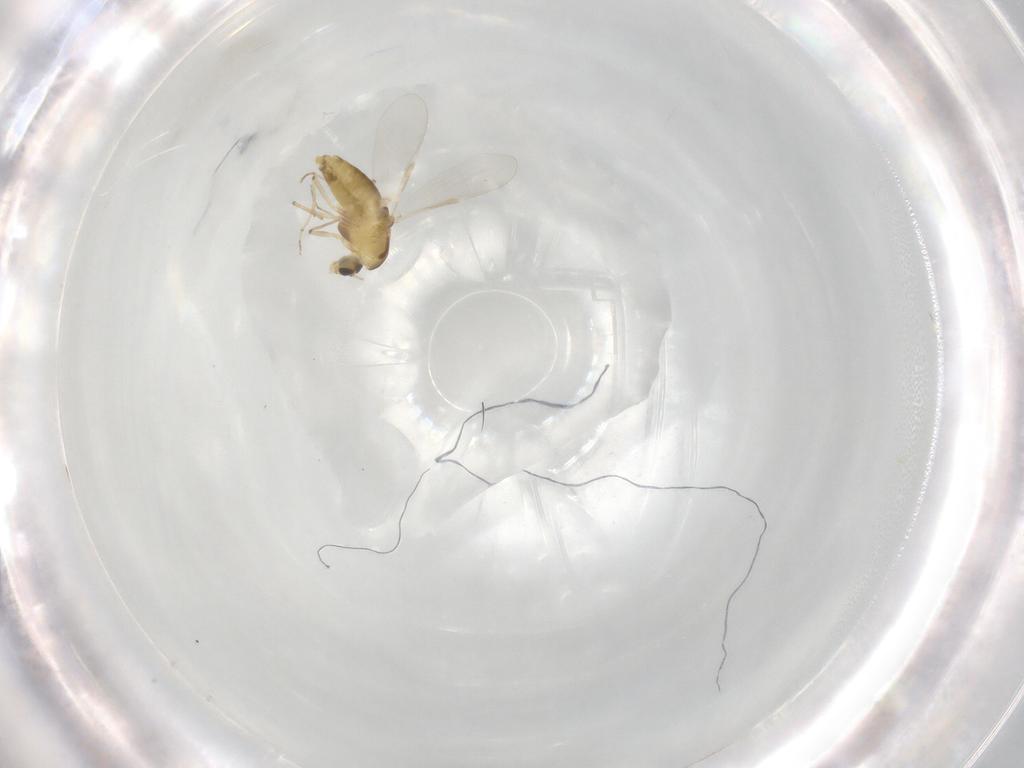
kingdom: Animalia
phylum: Arthropoda
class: Insecta
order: Diptera
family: Chironomidae
